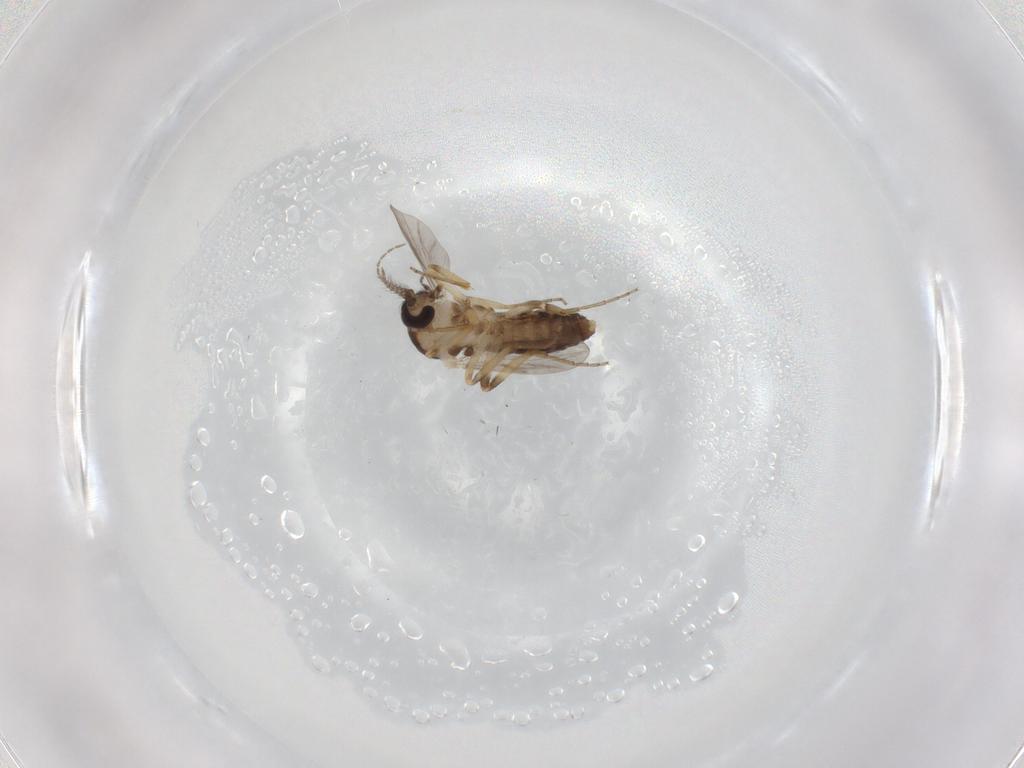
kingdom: Animalia
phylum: Arthropoda
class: Insecta
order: Diptera
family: Ceratopogonidae
